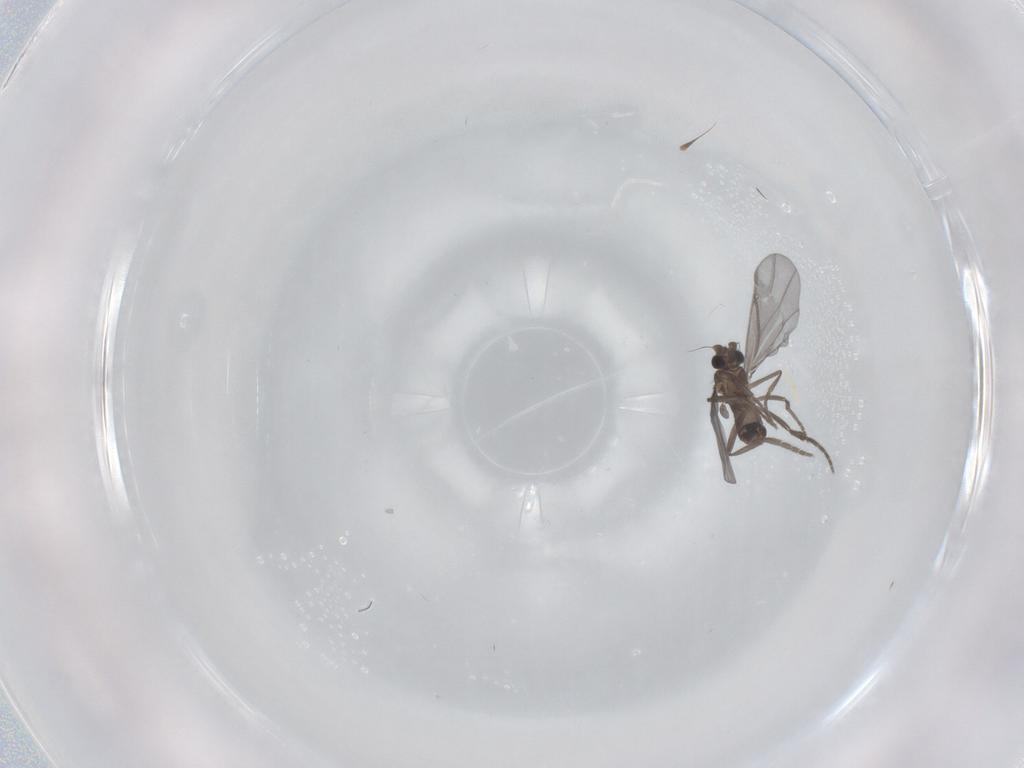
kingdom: Animalia
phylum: Arthropoda
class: Insecta
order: Diptera
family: Phoridae
